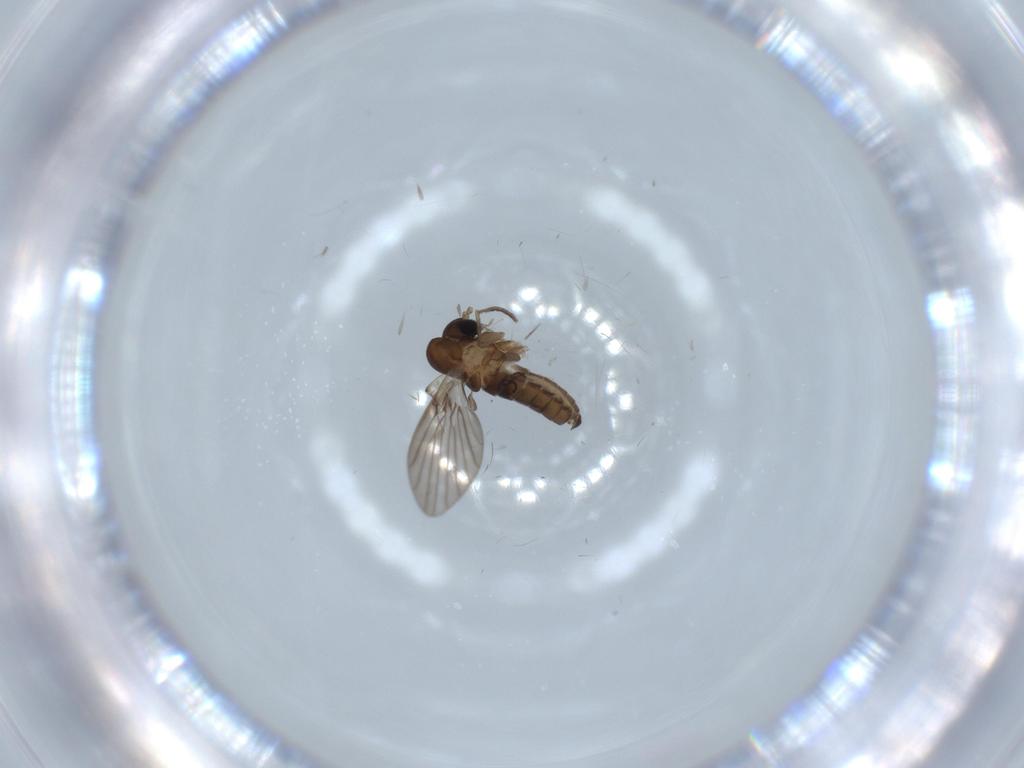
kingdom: Animalia
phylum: Arthropoda
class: Insecta
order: Diptera
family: Psychodidae
